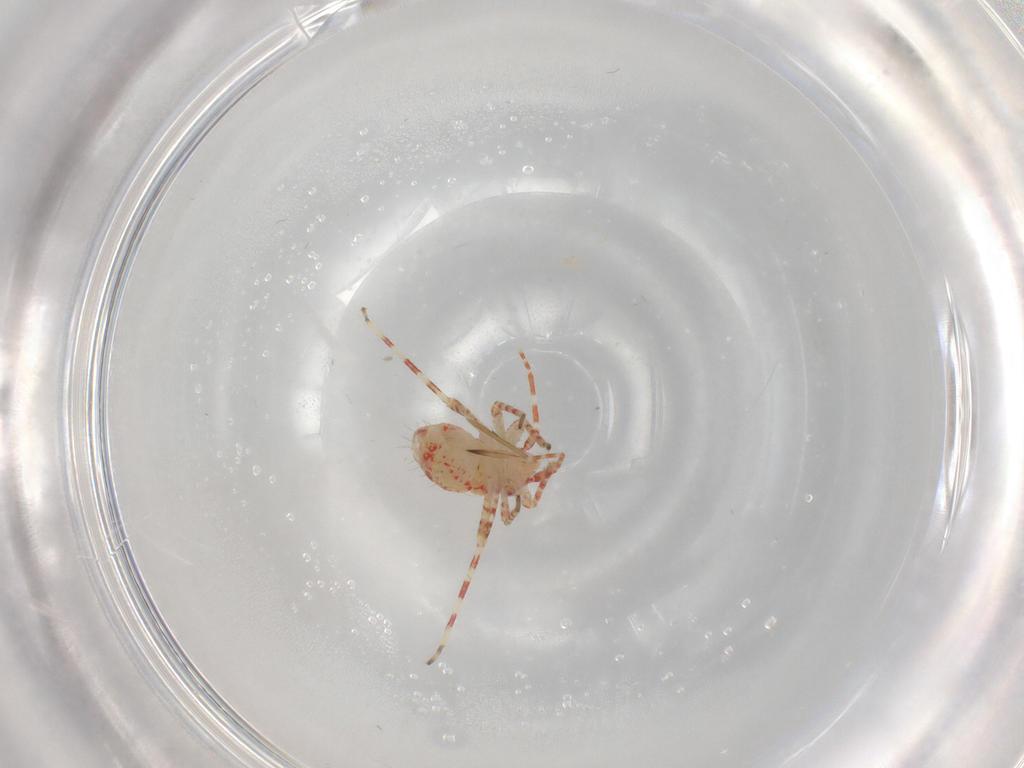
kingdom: Animalia
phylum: Arthropoda
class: Insecta
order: Hemiptera
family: Miridae
